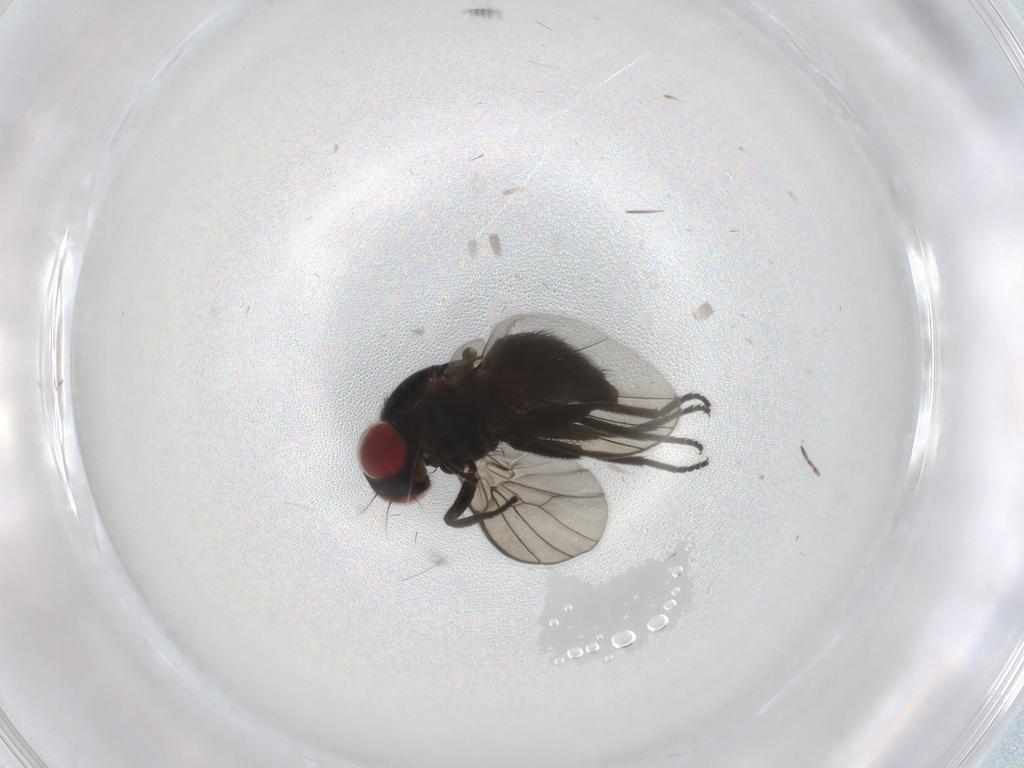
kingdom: Animalia
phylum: Arthropoda
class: Insecta
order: Diptera
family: Agromyzidae
